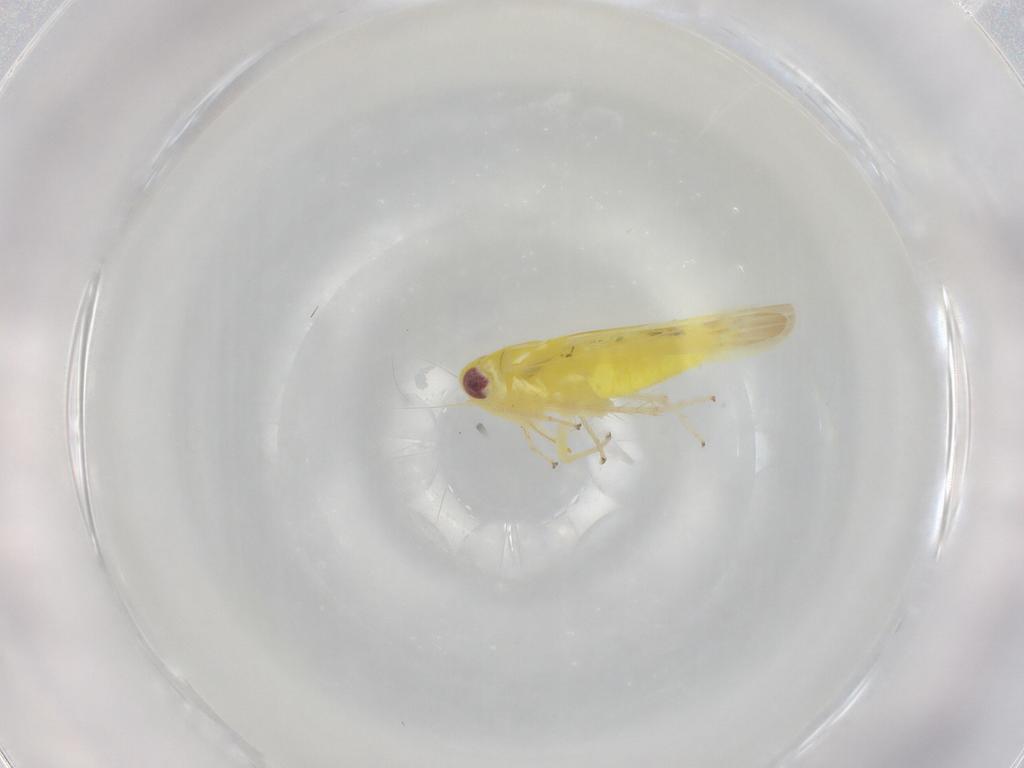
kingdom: Animalia
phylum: Arthropoda
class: Insecta
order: Hemiptera
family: Cicadellidae
